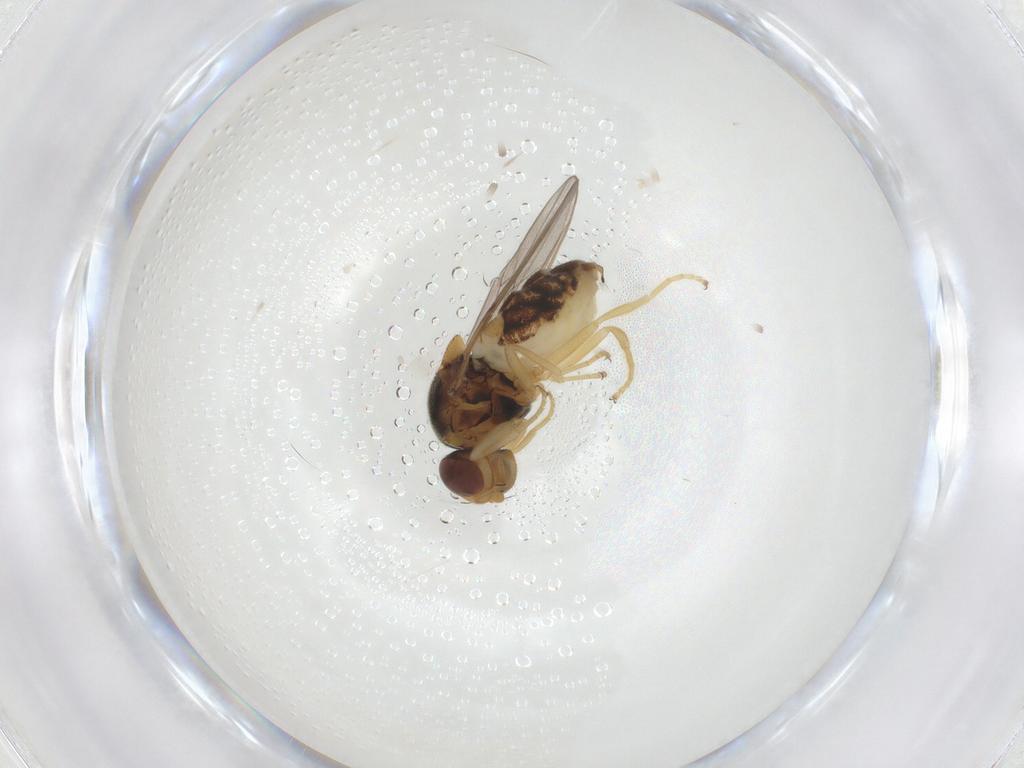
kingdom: Animalia
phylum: Arthropoda
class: Insecta
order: Diptera
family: Chloropidae
